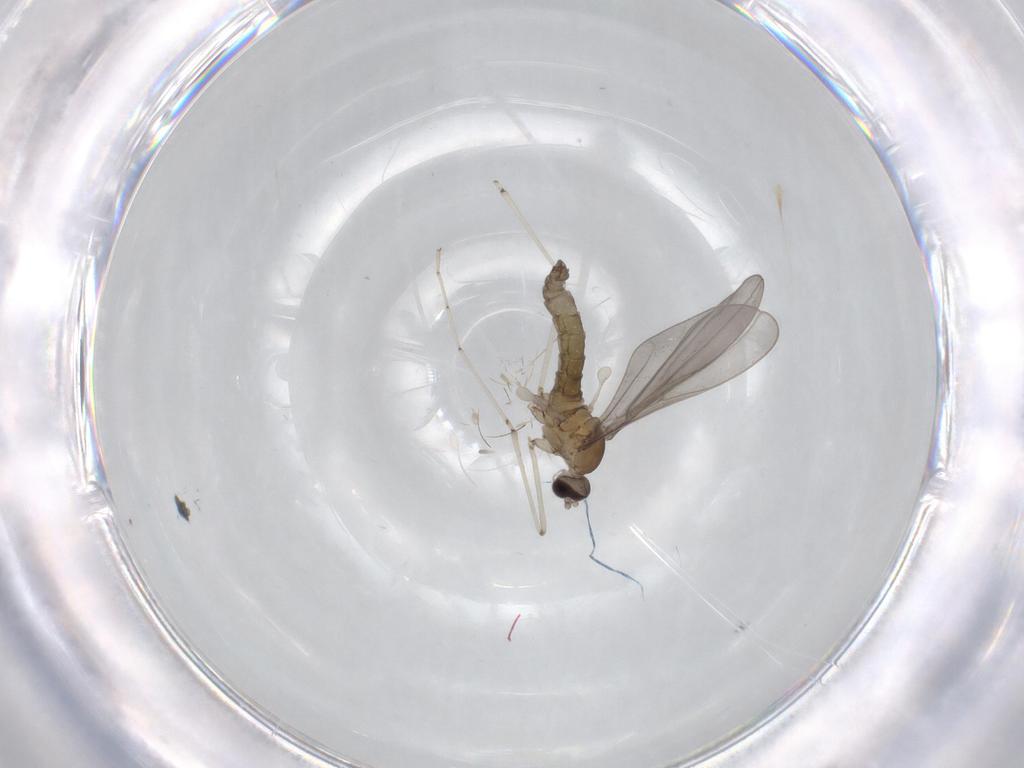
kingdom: Animalia
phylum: Arthropoda
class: Insecta
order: Diptera
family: Cecidomyiidae
